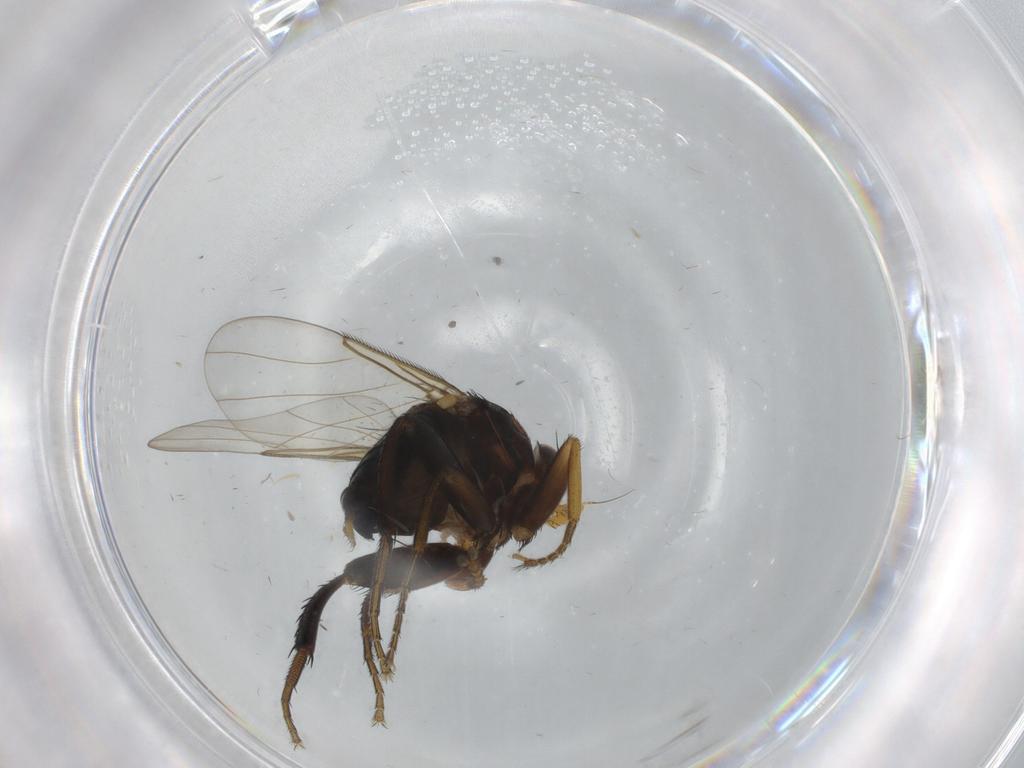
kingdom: Animalia
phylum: Arthropoda
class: Insecta
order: Diptera
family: Phoridae
